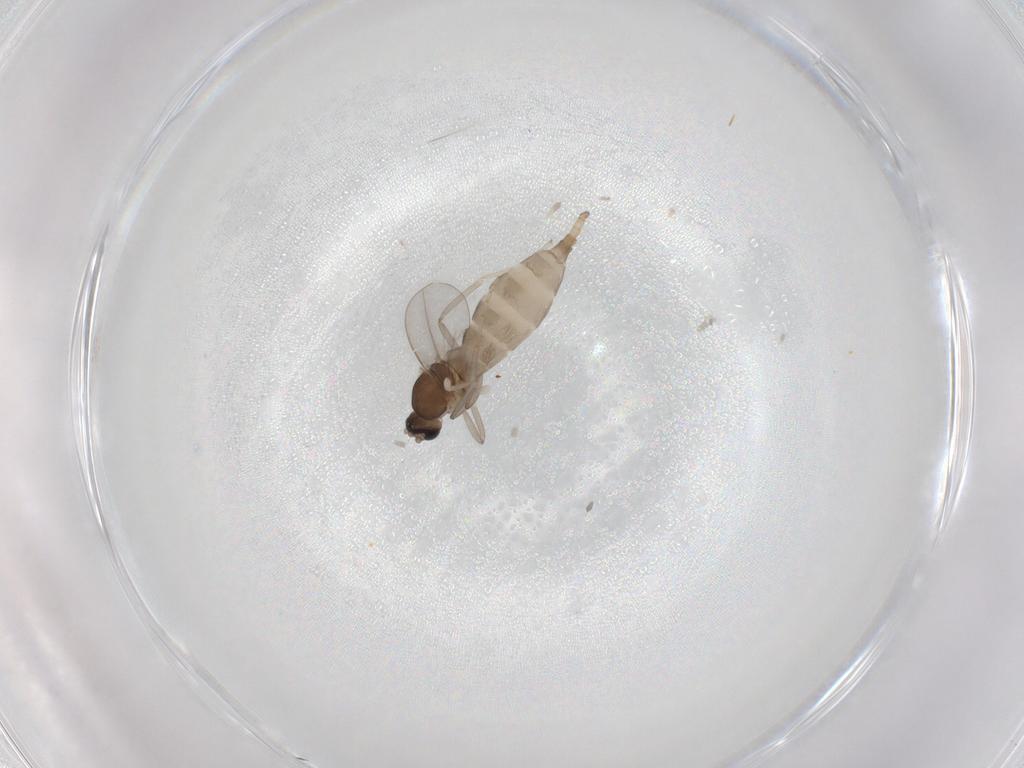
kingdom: Animalia
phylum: Arthropoda
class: Insecta
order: Diptera
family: Cecidomyiidae
